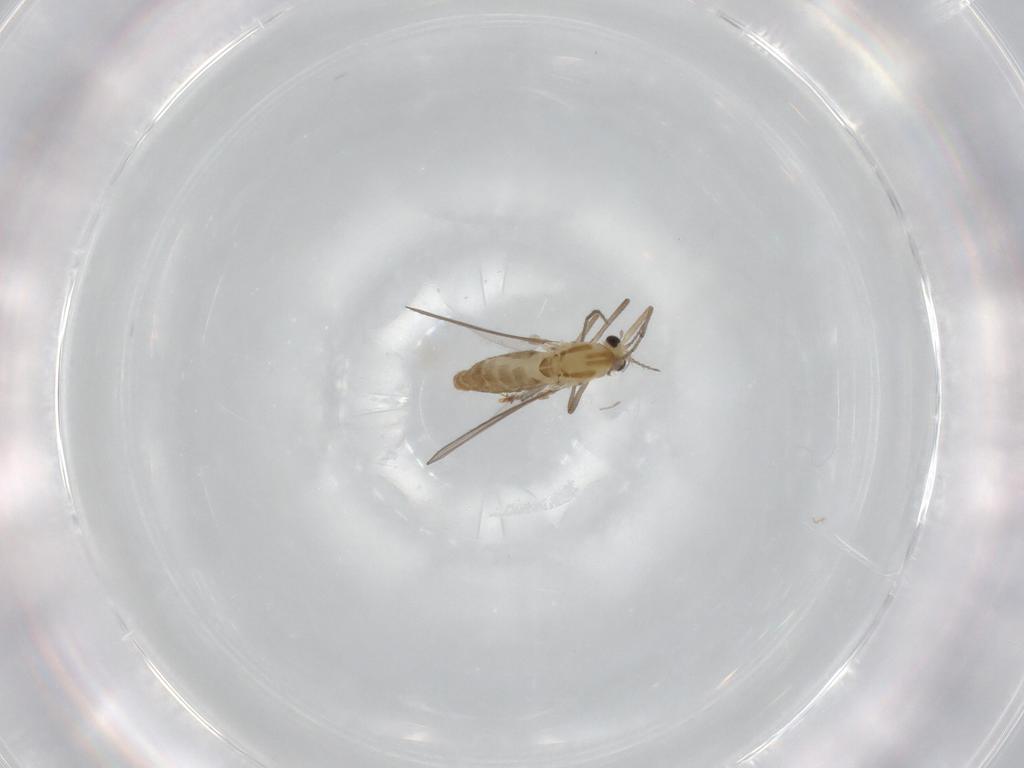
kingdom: Animalia
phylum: Arthropoda
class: Insecta
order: Diptera
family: Chironomidae
